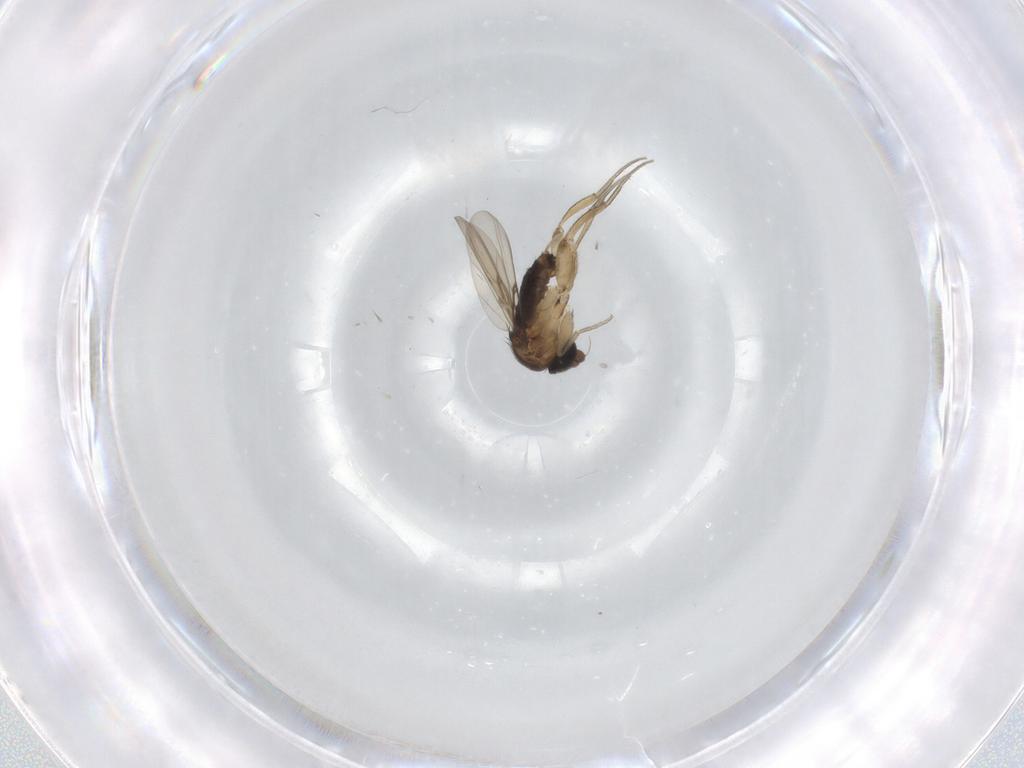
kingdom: Animalia
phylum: Arthropoda
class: Insecta
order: Diptera
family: Phoridae
